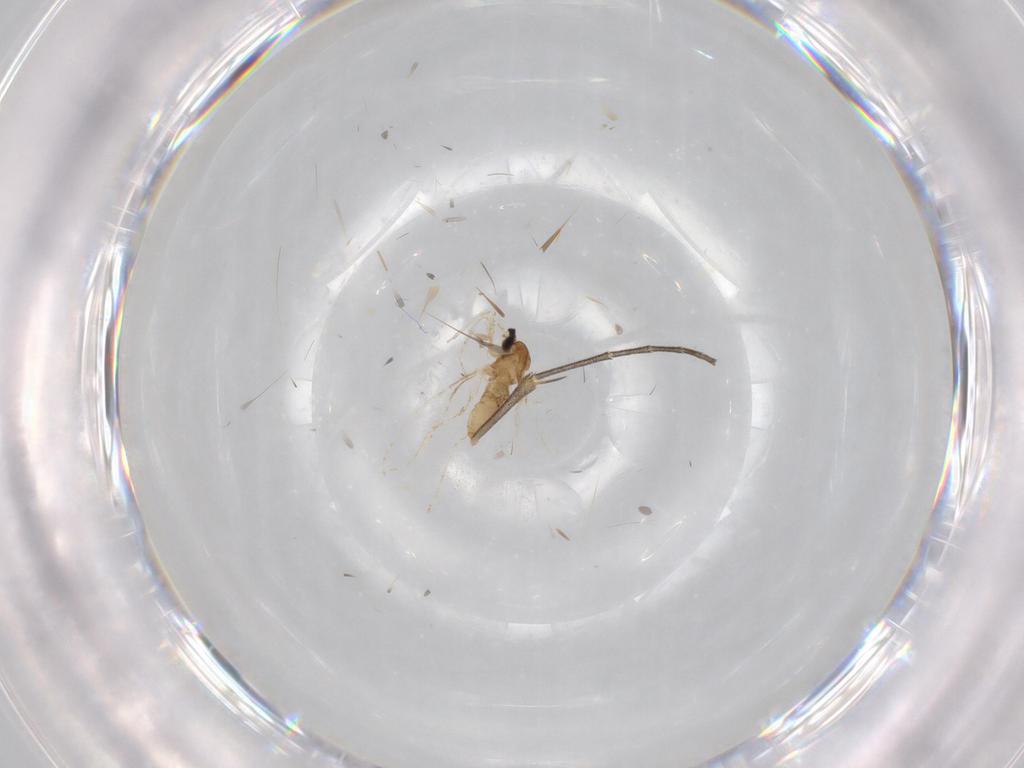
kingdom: Animalia
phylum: Arthropoda
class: Insecta
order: Diptera
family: Cecidomyiidae
